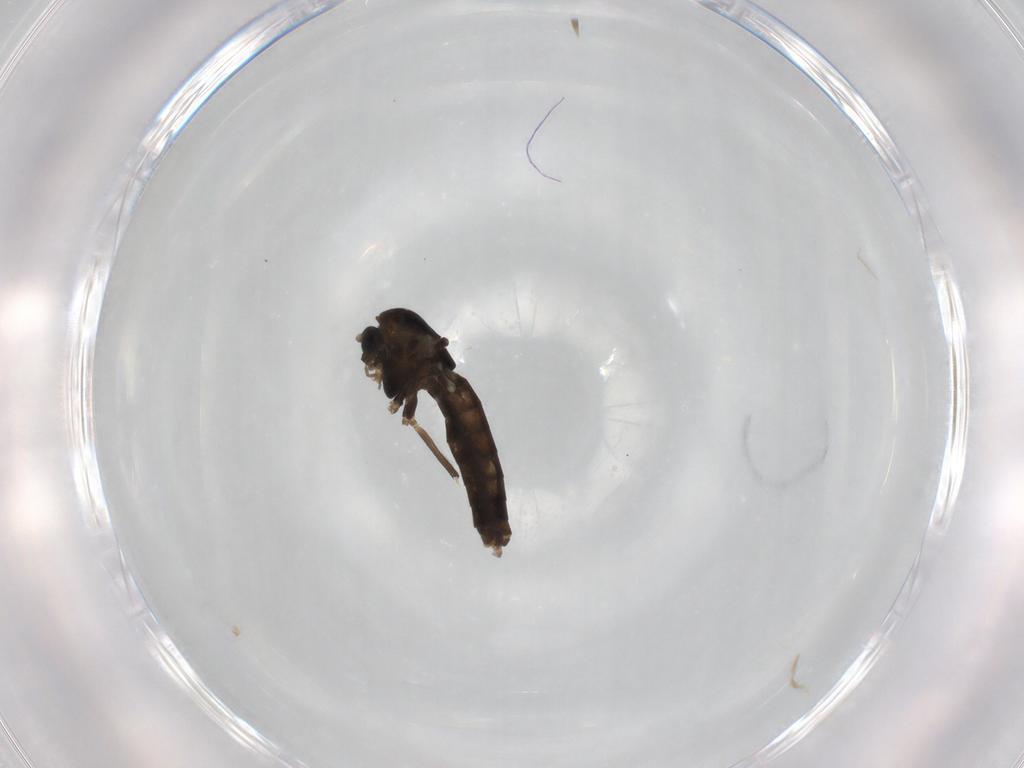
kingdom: Animalia
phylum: Arthropoda
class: Insecta
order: Diptera
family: Chironomidae
